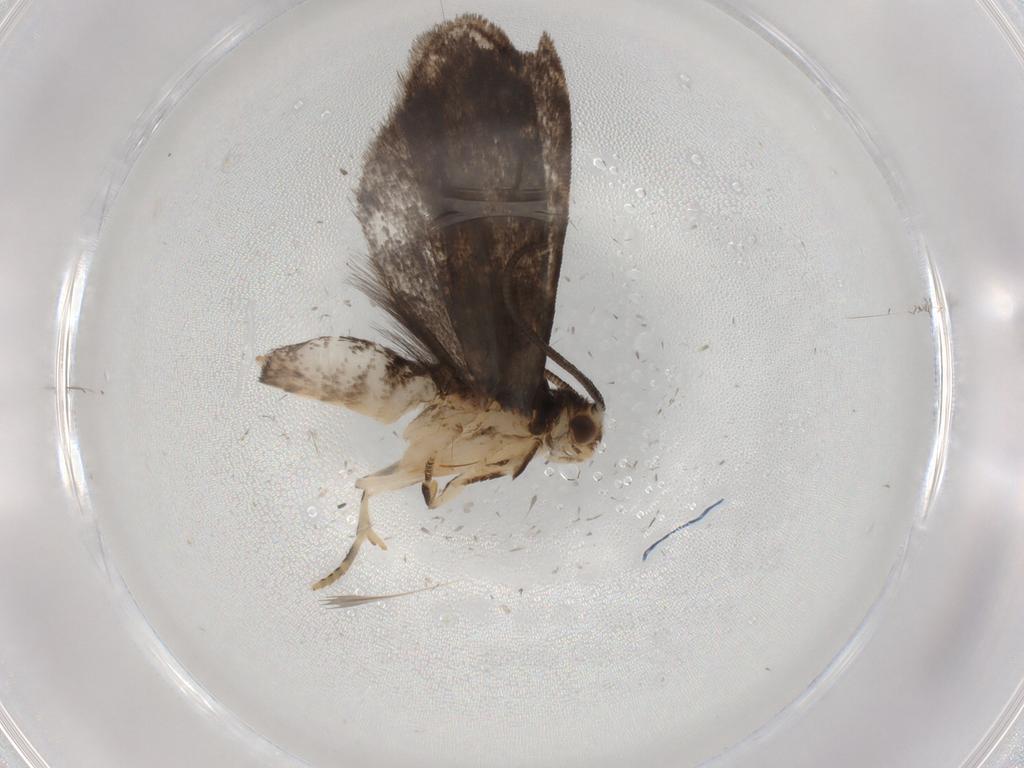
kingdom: Animalia
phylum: Arthropoda
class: Insecta
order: Lepidoptera
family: Dryadaulidae
